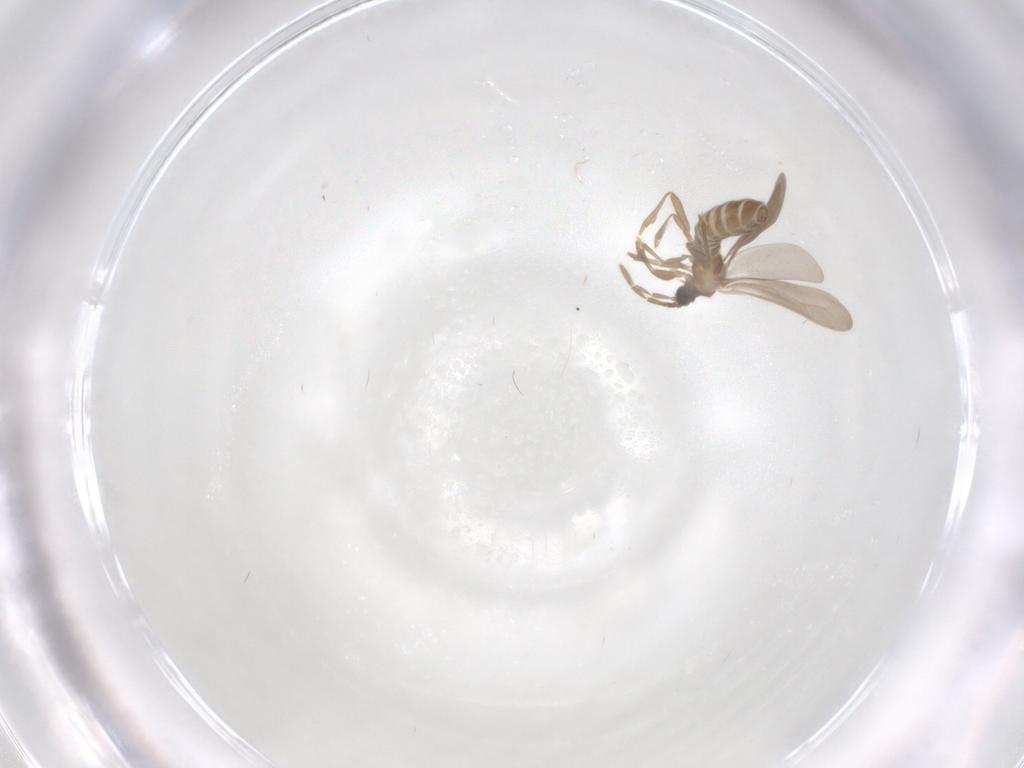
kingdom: Animalia
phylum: Arthropoda
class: Insecta
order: Hemiptera
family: Enicocephalidae
